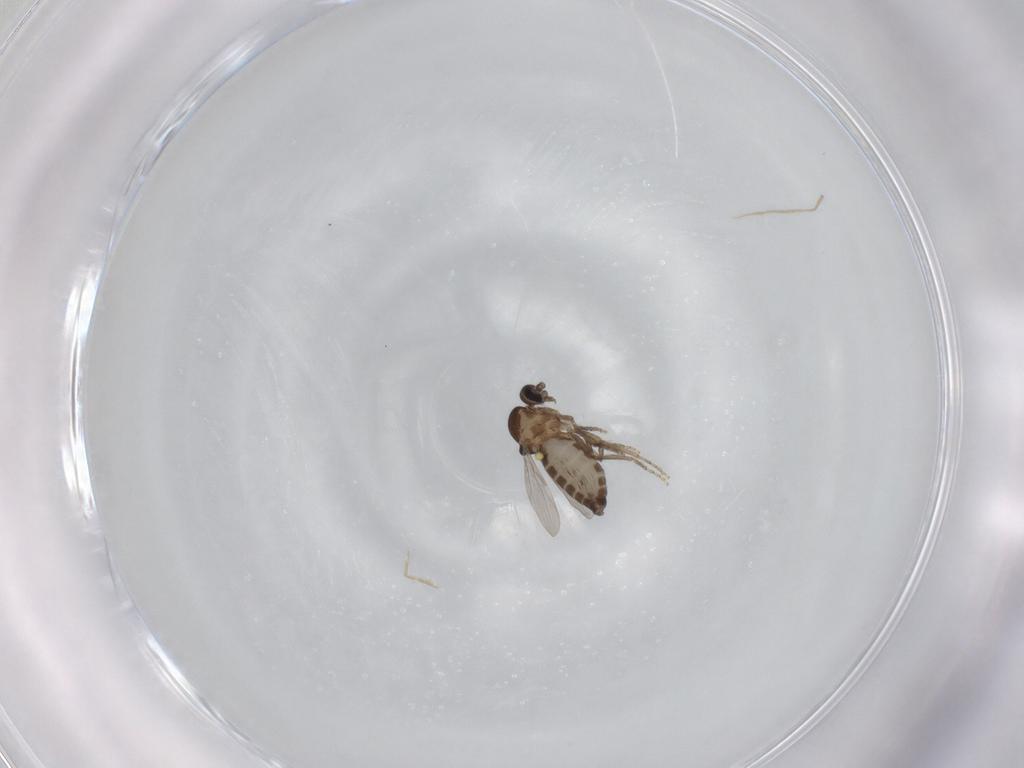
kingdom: Animalia
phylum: Arthropoda
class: Insecta
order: Diptera
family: Ceratopogonidae
